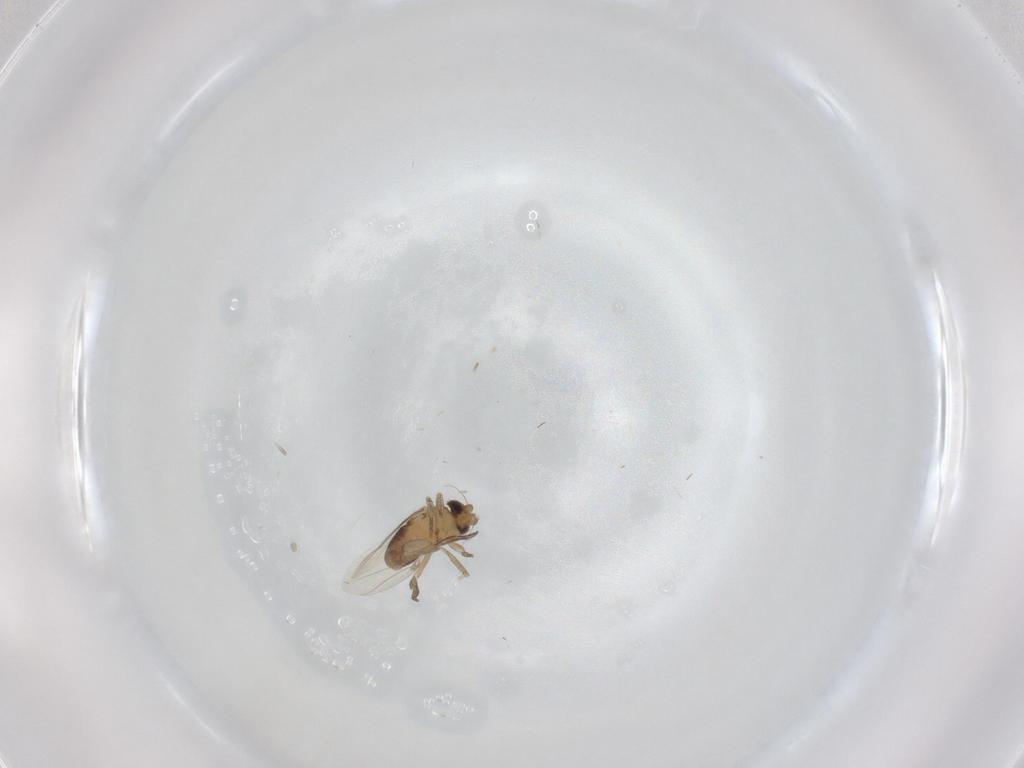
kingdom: Animalia
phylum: Arthropoda
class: Insecta
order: Diptera
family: Phoridae
